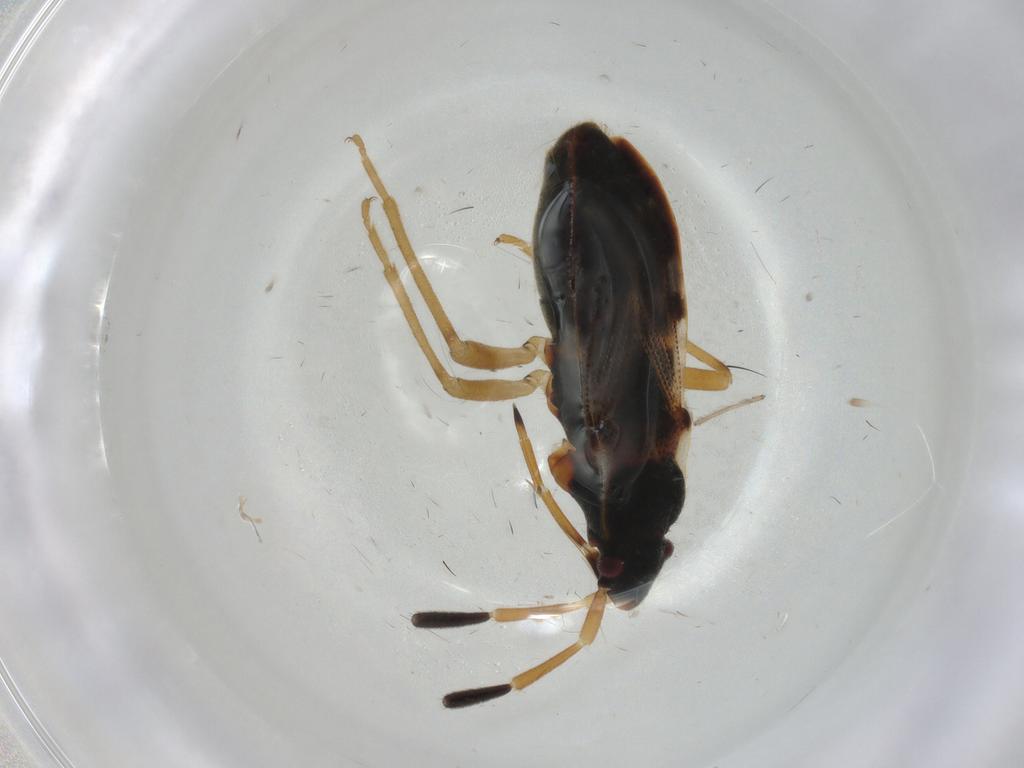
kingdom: Animalia
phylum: Arthropoda
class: Insecta
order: Hemiptera
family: Rhyparochromidae
